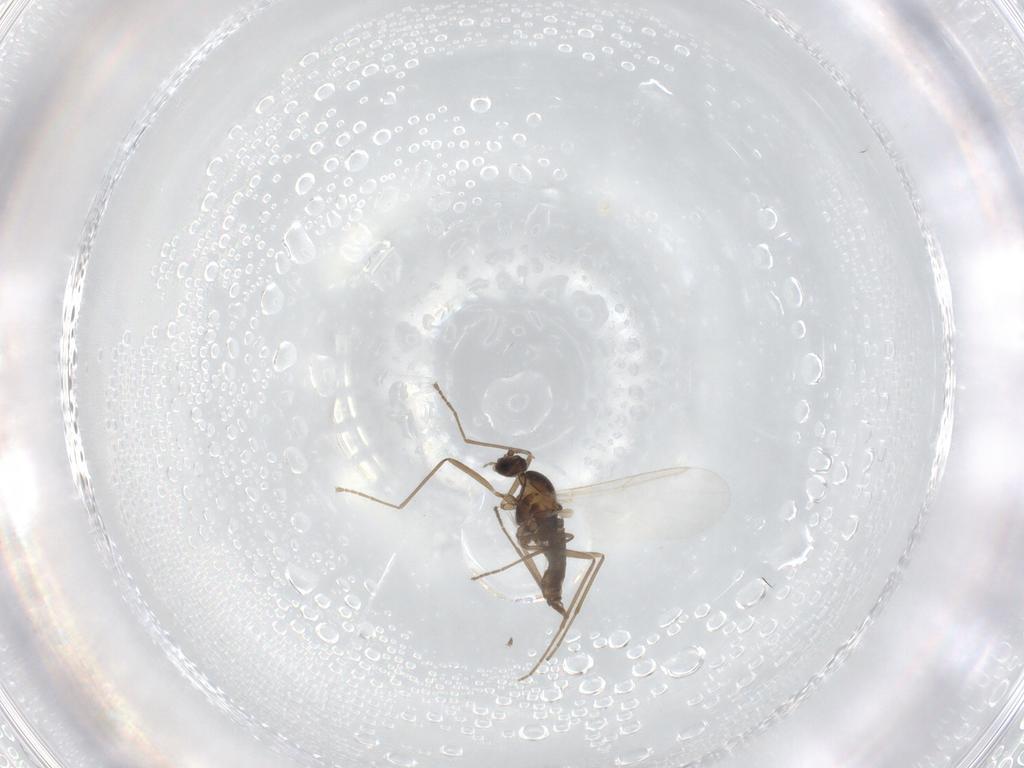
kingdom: Animalia
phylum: Arthropoda
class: Insecta
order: Diptera
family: Cecidomyiidae
